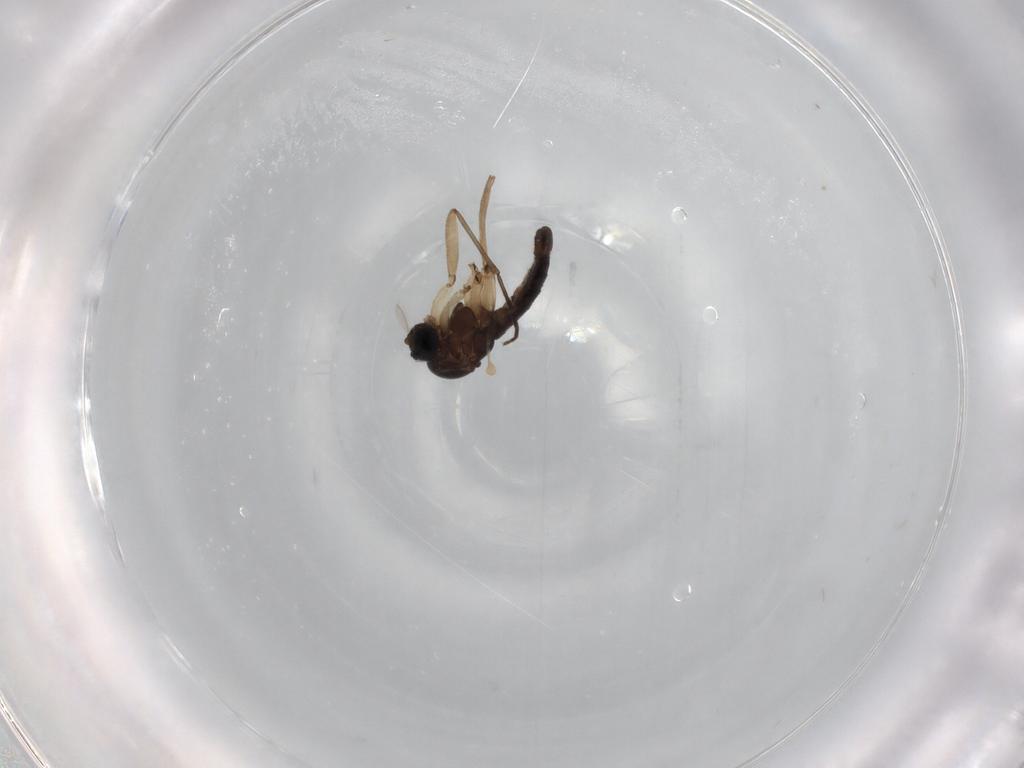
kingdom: Animalia
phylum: Arthropoda
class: Insecta
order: Diptera
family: Sciaridae
